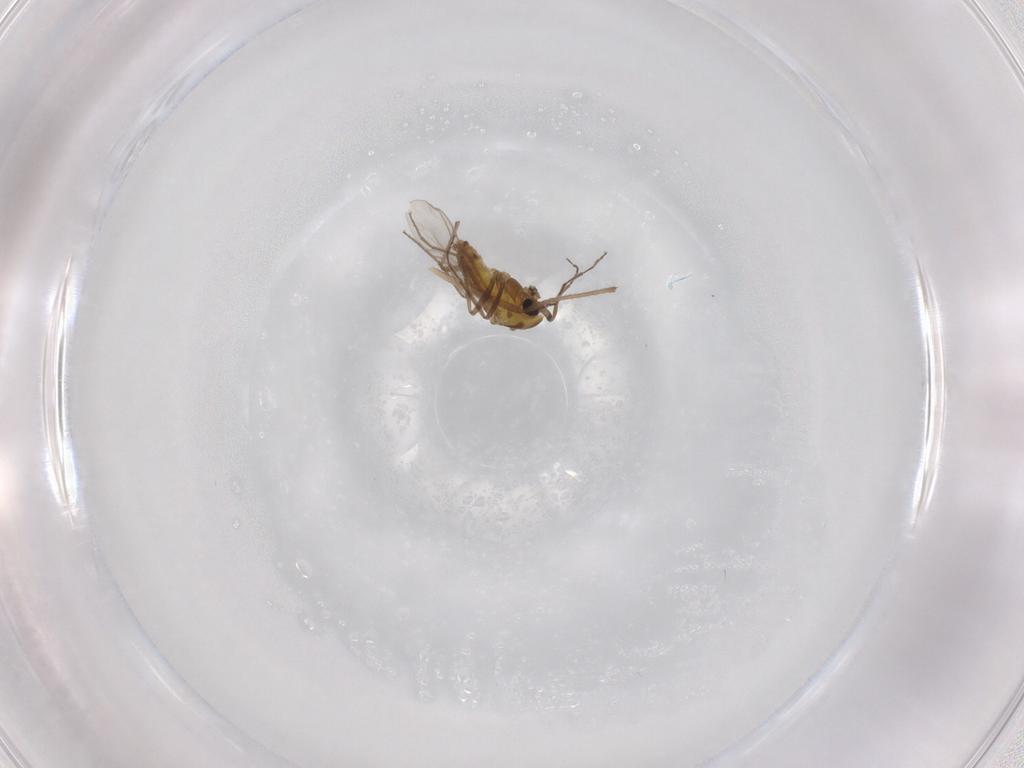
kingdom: Animalia
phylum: Arthropoda
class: Insecta
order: Diptera
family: Chironomidae
